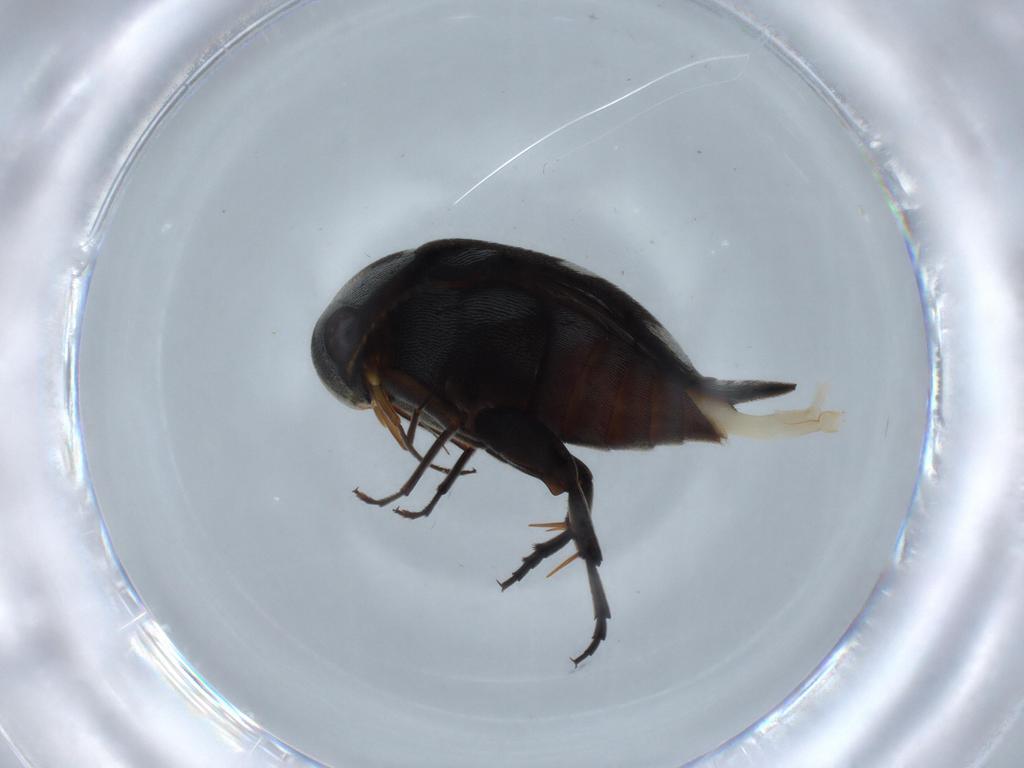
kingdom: Animalia
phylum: Arthropoda
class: Insecta
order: Coleoptera
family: Mordellidae
